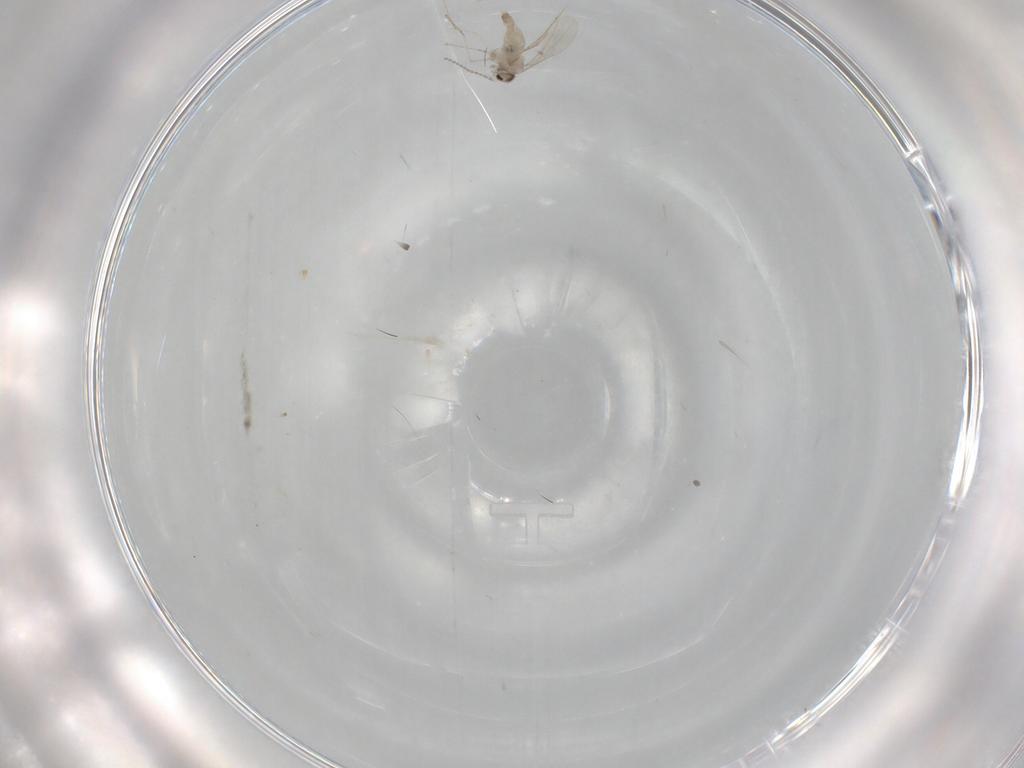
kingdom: Animalia
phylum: Arthropoda
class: Insecta
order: Diptera
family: Cecidomyiidae
